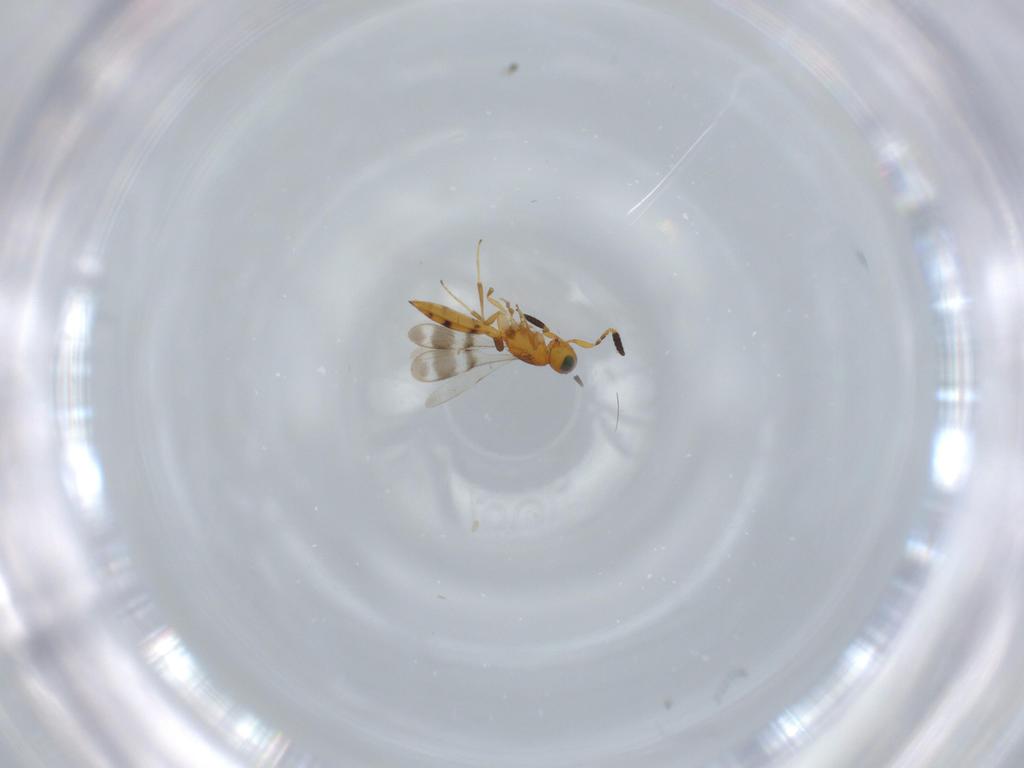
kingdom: Animalia
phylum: Arthropoda
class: Insecta
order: Hymenoptera
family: Scelionidae
